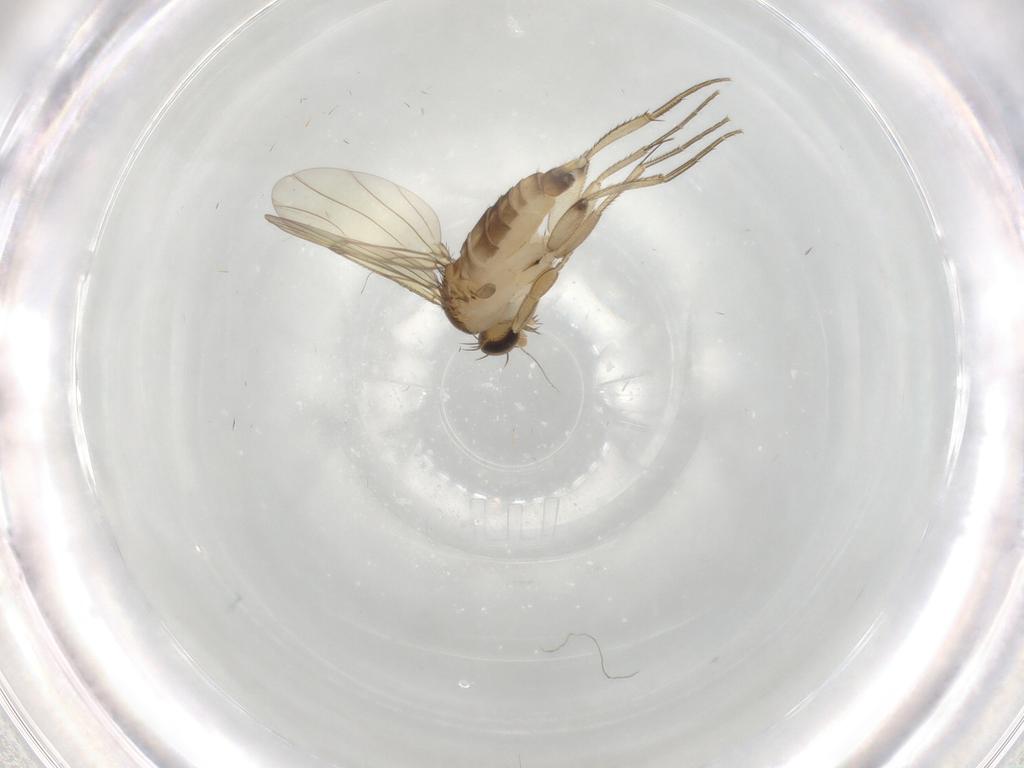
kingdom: Animalia
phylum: Arthropoda
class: Insecta
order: Diptera
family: Phoridae
